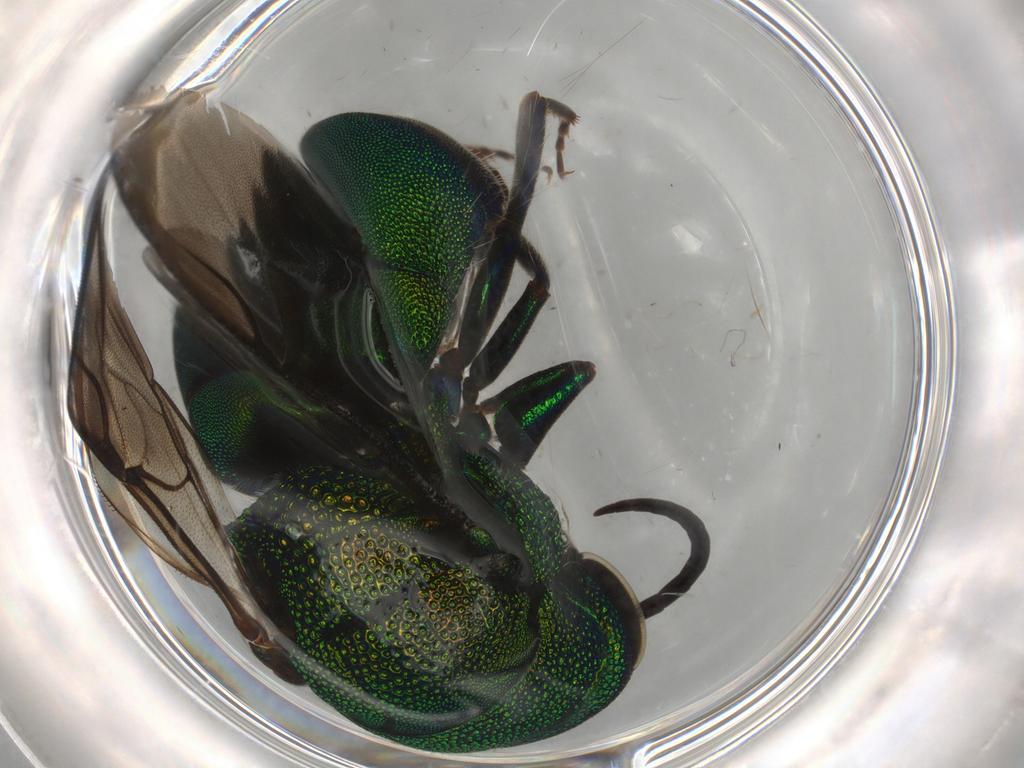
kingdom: Animalia
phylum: Arthropoda
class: Insecta
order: Hymenoptera
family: Chrysididae
